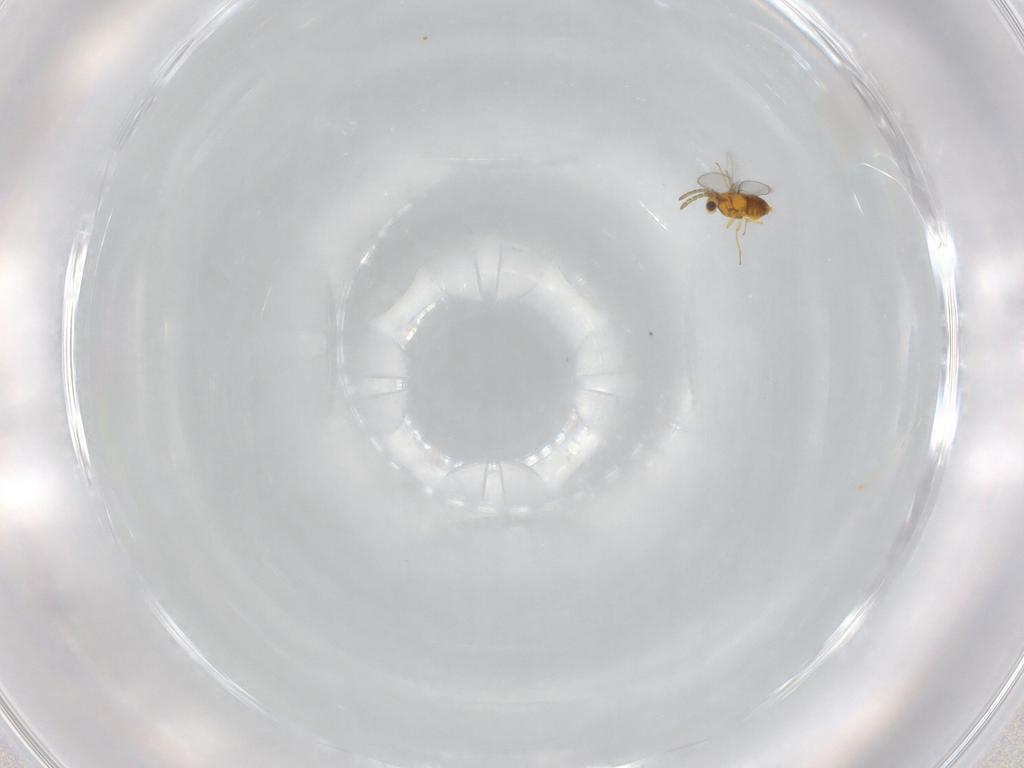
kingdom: Animalia
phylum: Arthropoda
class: Insecta
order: Hymenoptera
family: Aphelinidae
